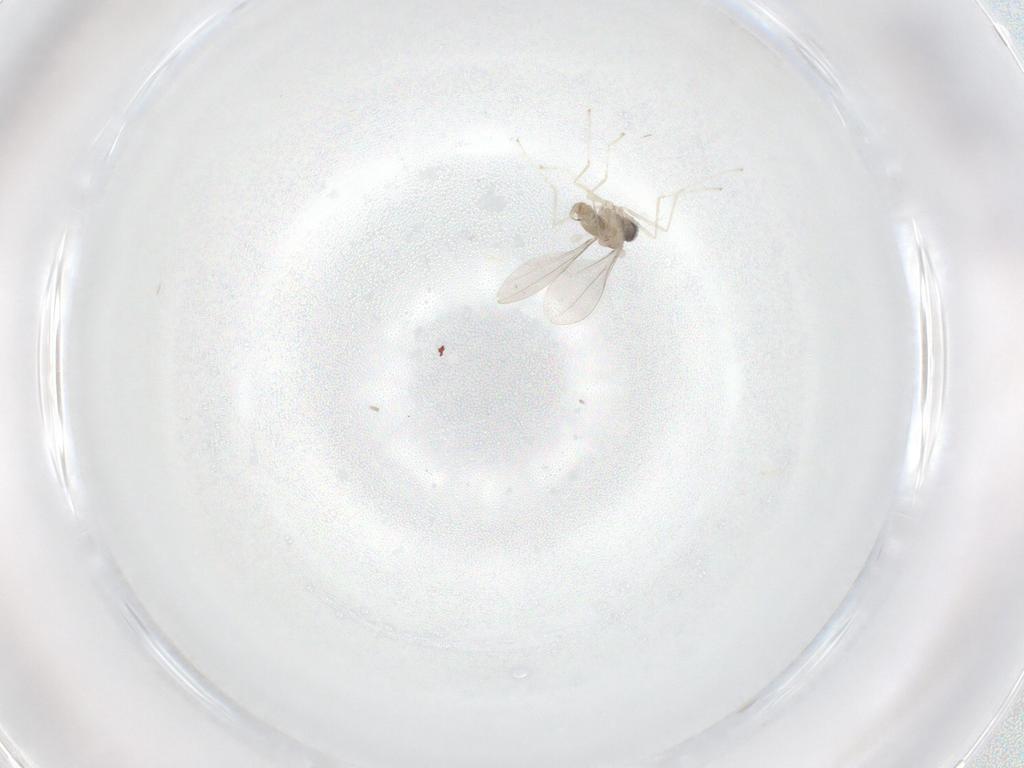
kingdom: Animalia
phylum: Arthropoda
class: Insecta
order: Diptera
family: Cecidomyiidae
